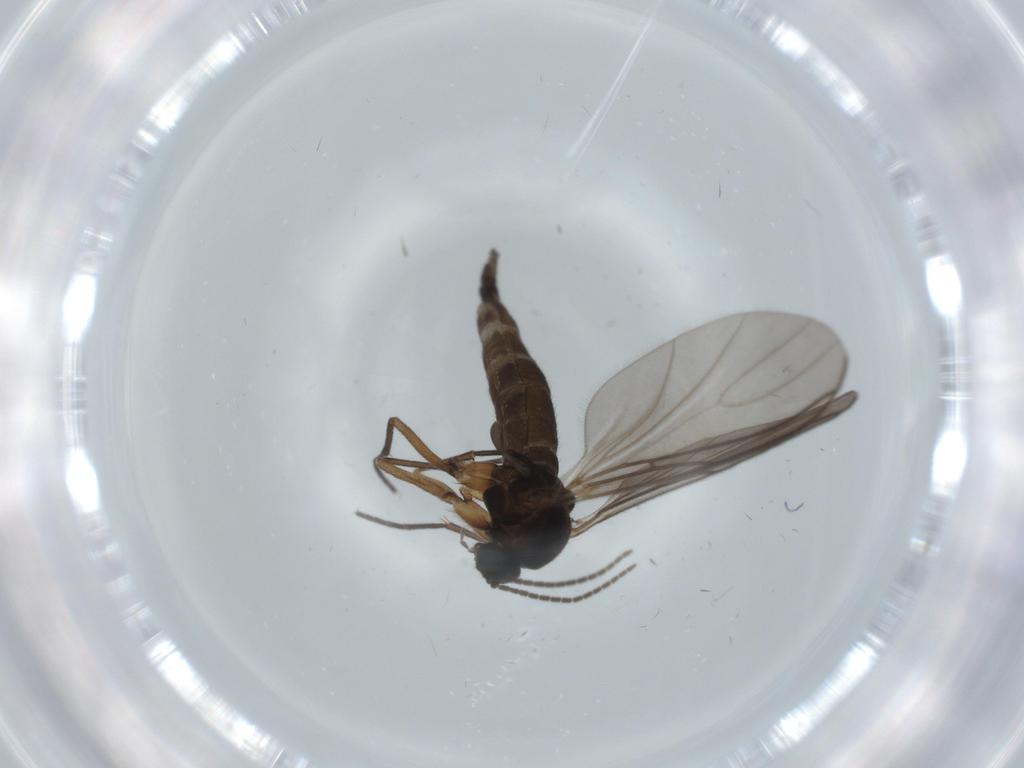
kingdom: Animalia
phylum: Arthropoda
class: Insecta
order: Diptera
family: Sciaridae
